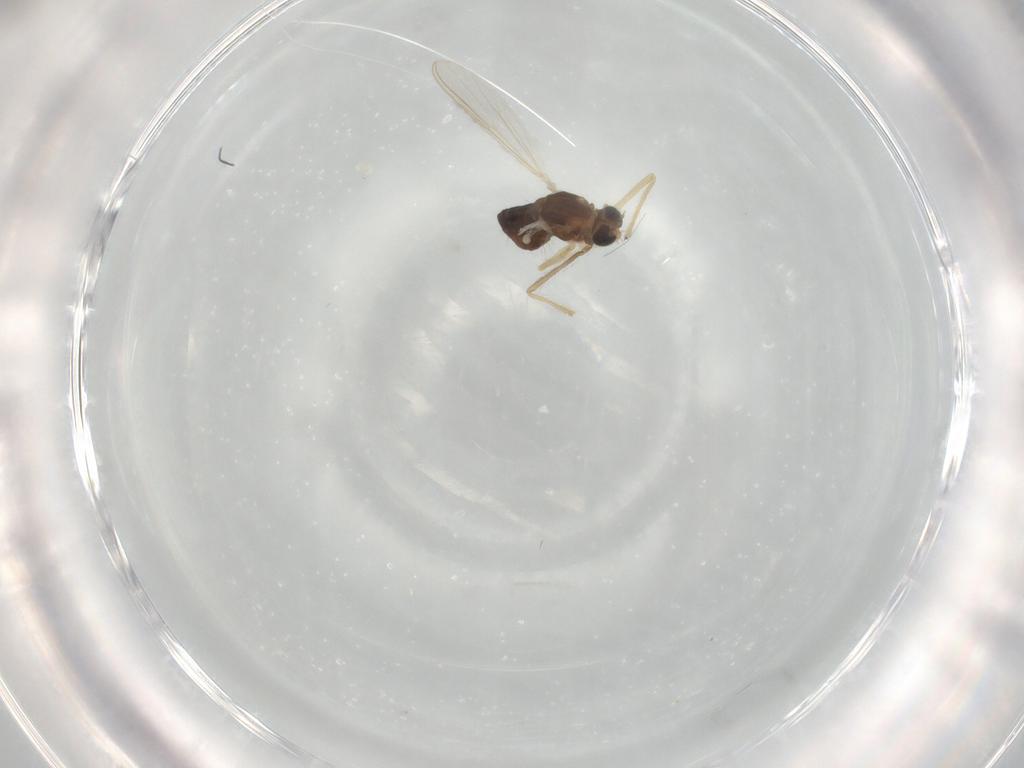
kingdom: Animalia
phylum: Arthropoda
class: Insecta
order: Diptera
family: Chironomidae
